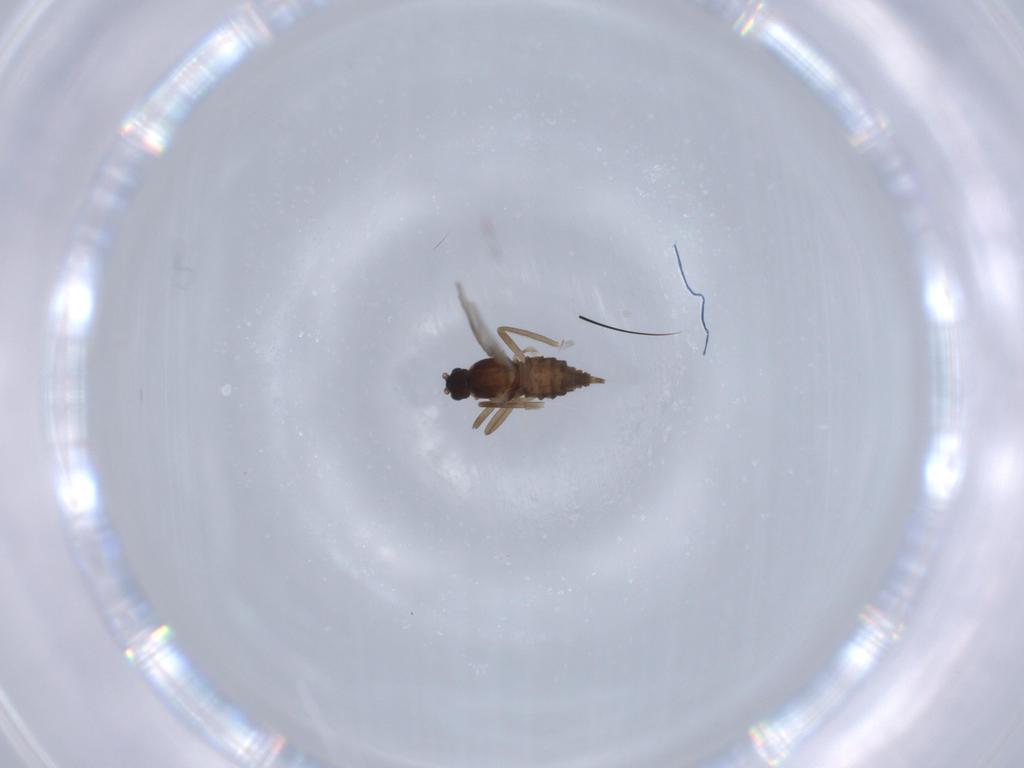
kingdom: Animalia
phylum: Arthropoda
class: Insecta
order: Diptera
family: Cecidomyiidae
